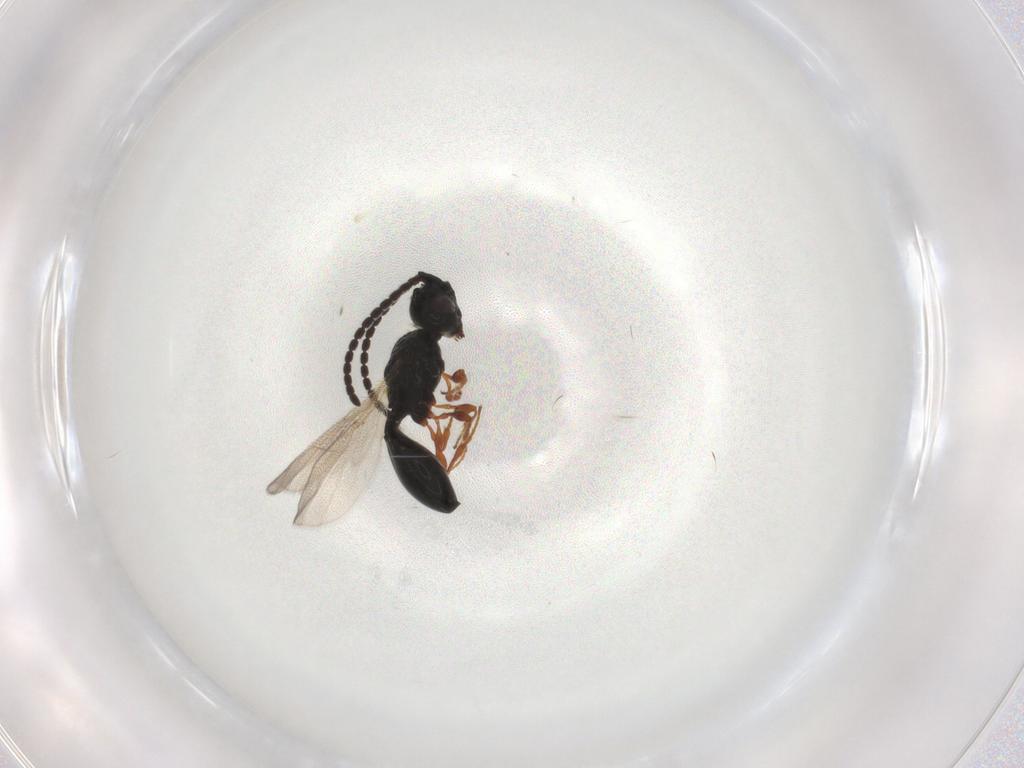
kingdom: Animalia
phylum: Arthropoda
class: Insecta
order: Hymenoptera
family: Diapriidae
